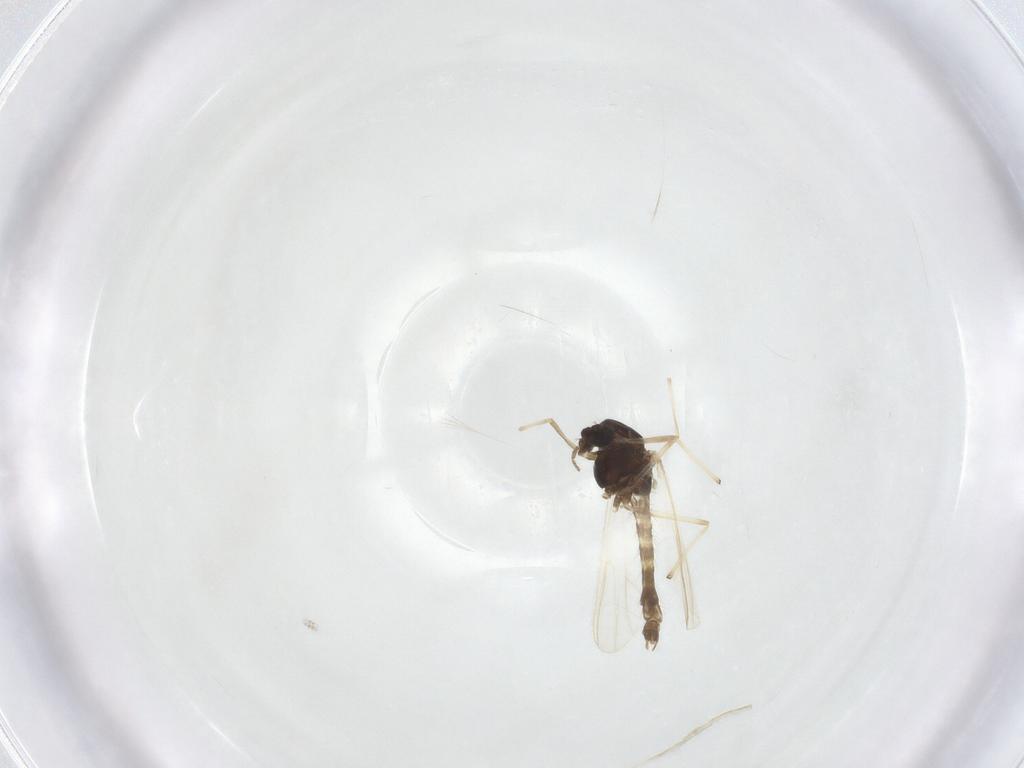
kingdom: Animalia
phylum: Arthropoda
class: Insecta
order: Diptera
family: Chironomidae
